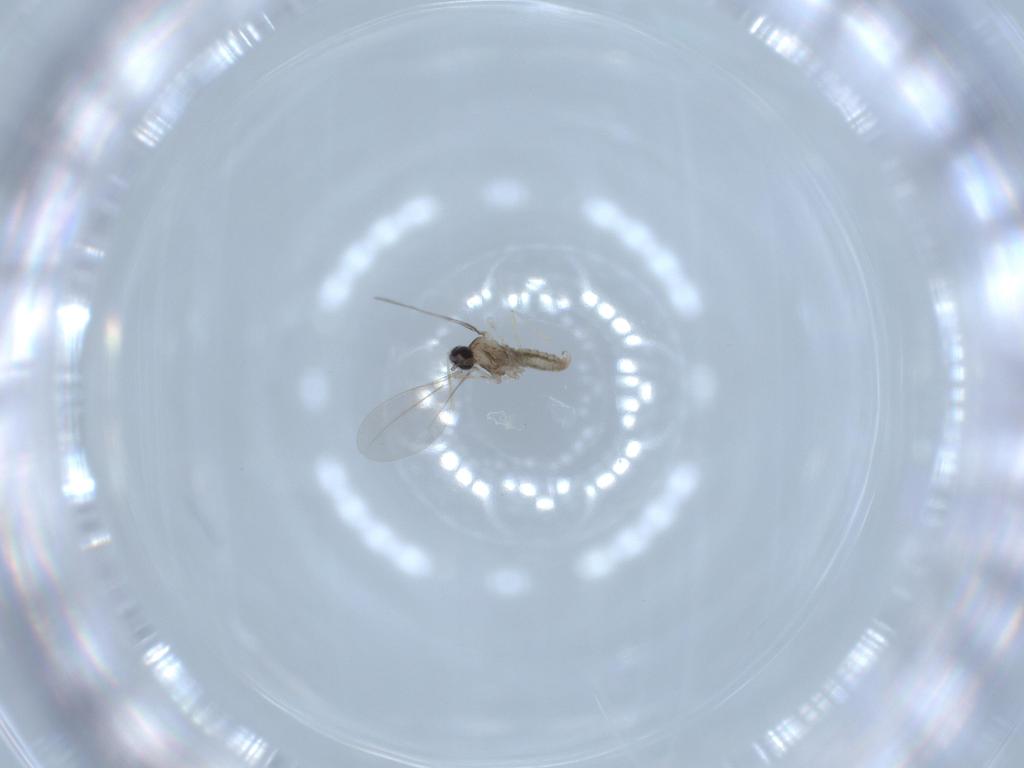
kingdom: Animalia
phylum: Arthropoda
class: Insecta
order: Diptera
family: Cecidomyiidae
